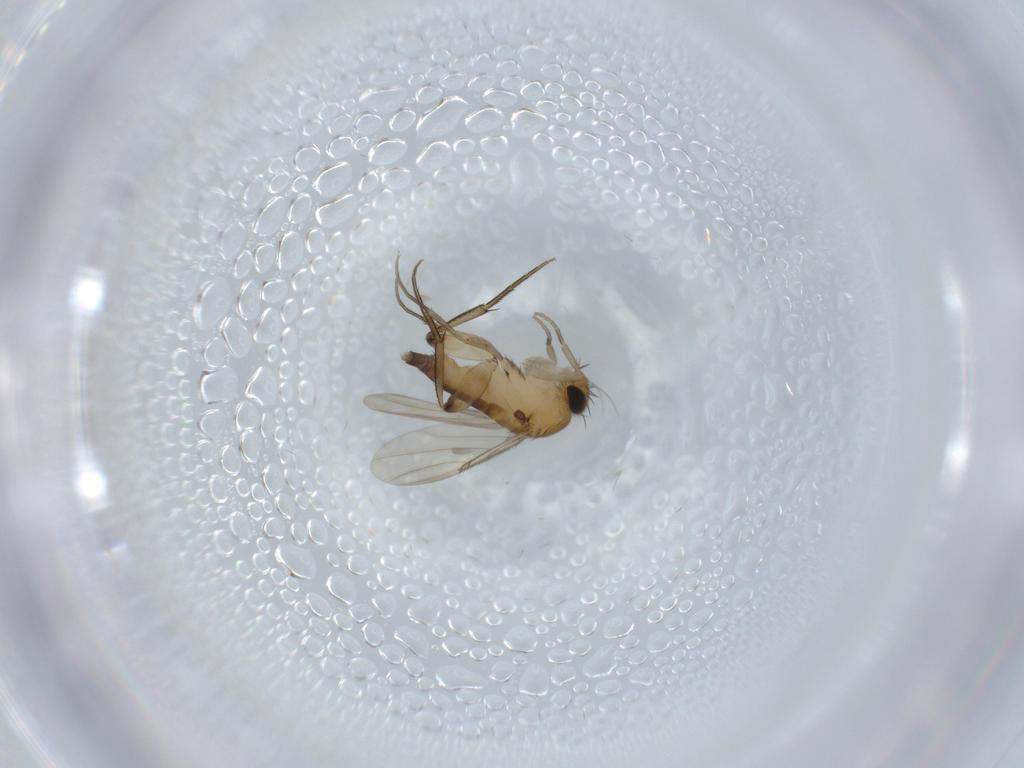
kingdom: Animalia
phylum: Arthropoda
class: Insecta
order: Diptera
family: Phoridae
